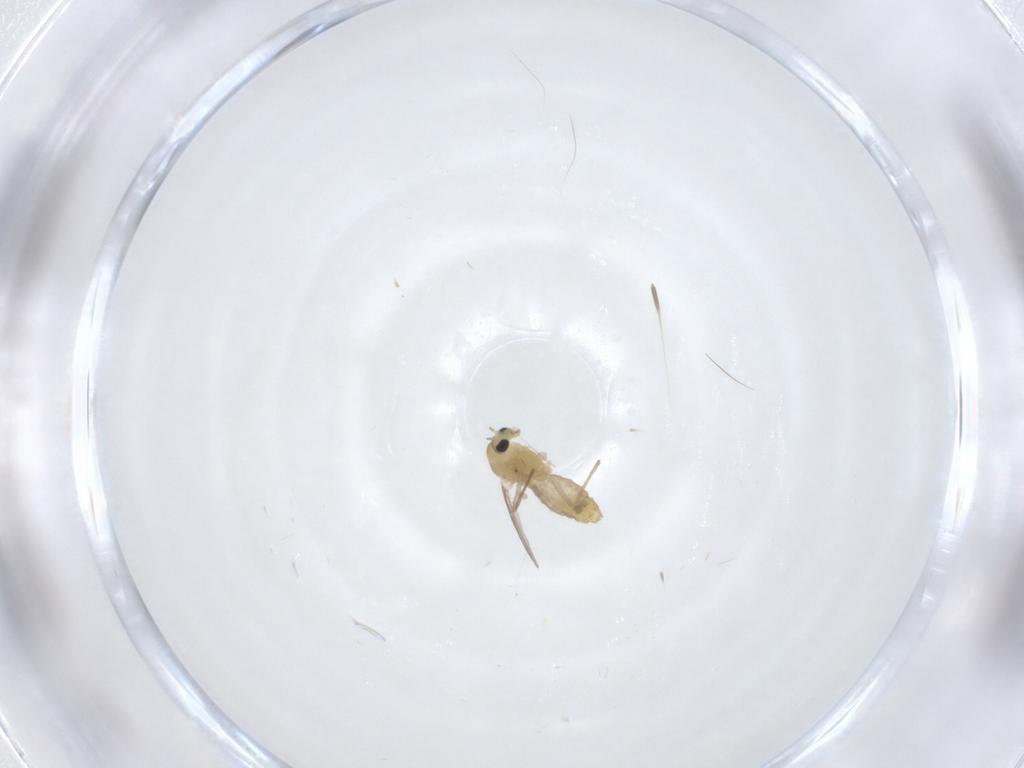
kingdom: Animalia
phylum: Arthropoda
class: Insecta
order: Diptera
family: Chironomidae
